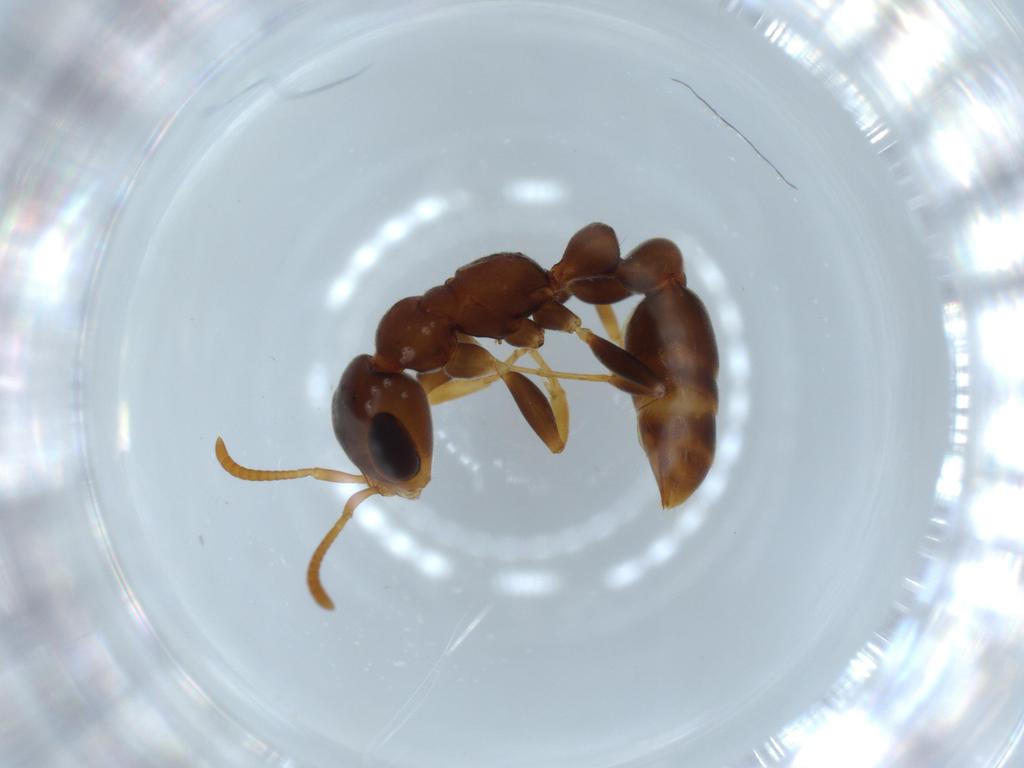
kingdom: Animalia
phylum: Arthropoda
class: Insecta
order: Hymenoptera
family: Formicidae
